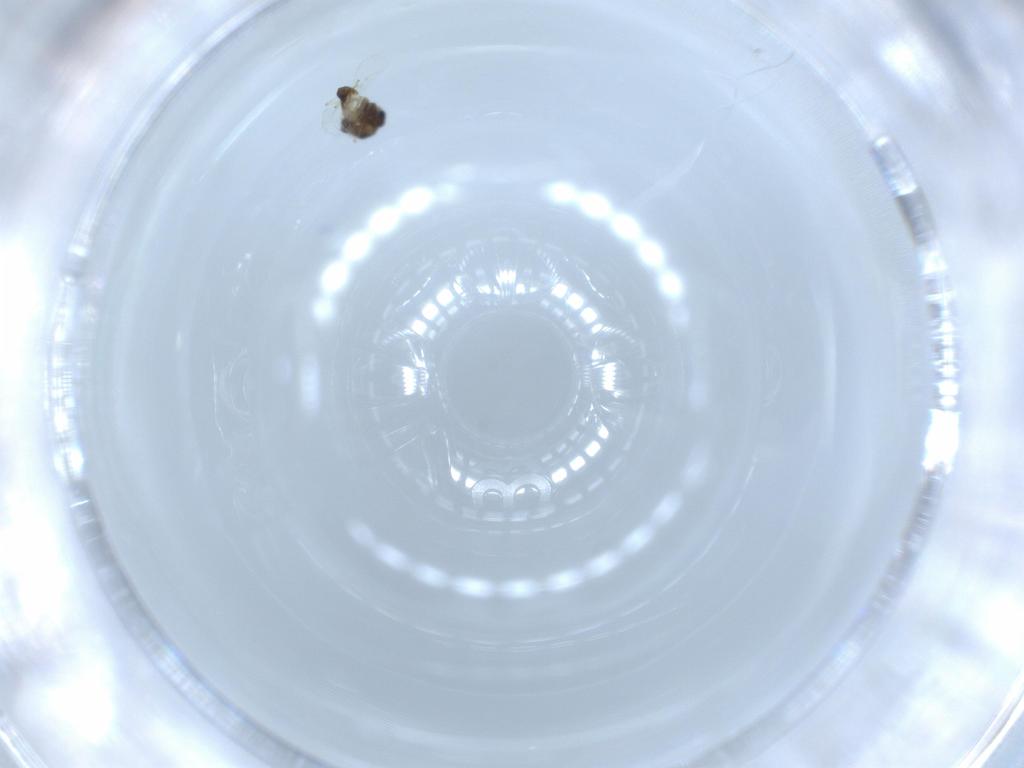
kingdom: Animalia
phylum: Arthropoda
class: Insecta
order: Diptera
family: Chironomidae
